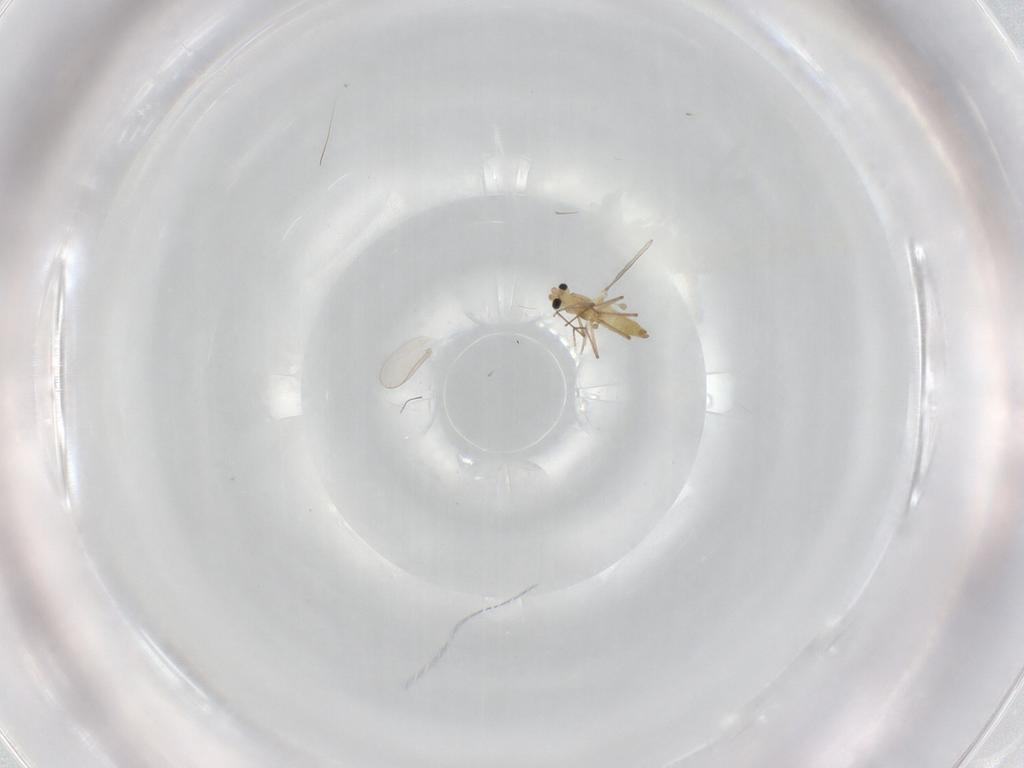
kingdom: Animalia
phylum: Arthropoda
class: Insecta
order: Diptera
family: Chironomidae
